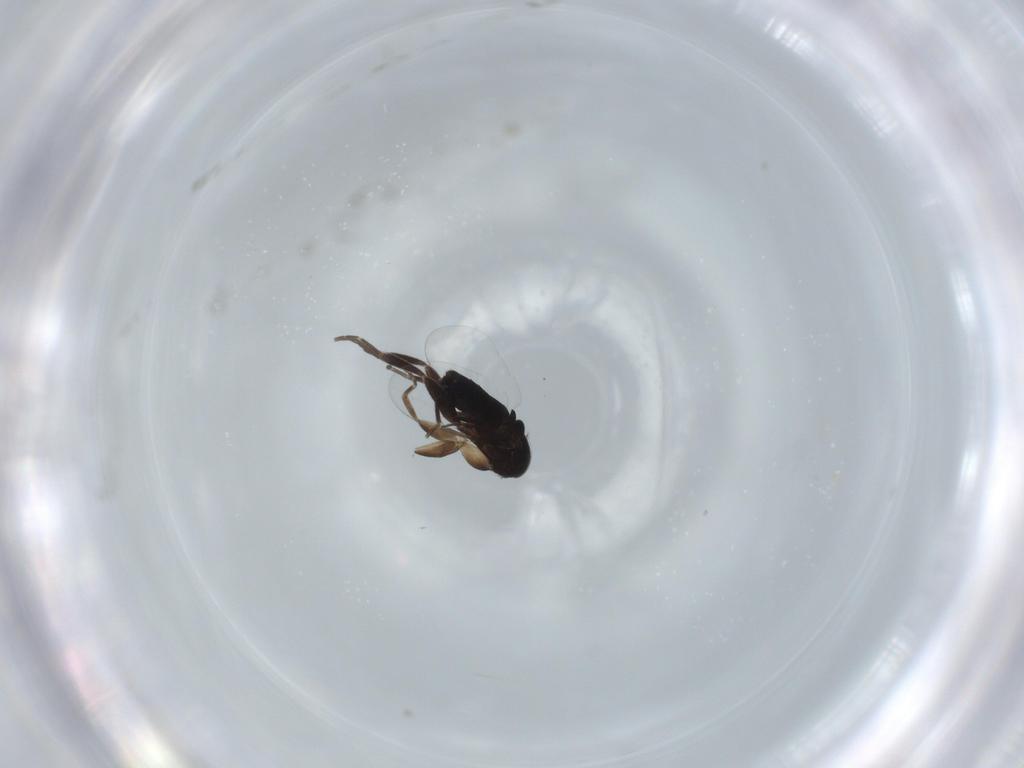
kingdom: Animalia
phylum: Arthropoda
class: Insecta
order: Diptera
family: Phoridae
